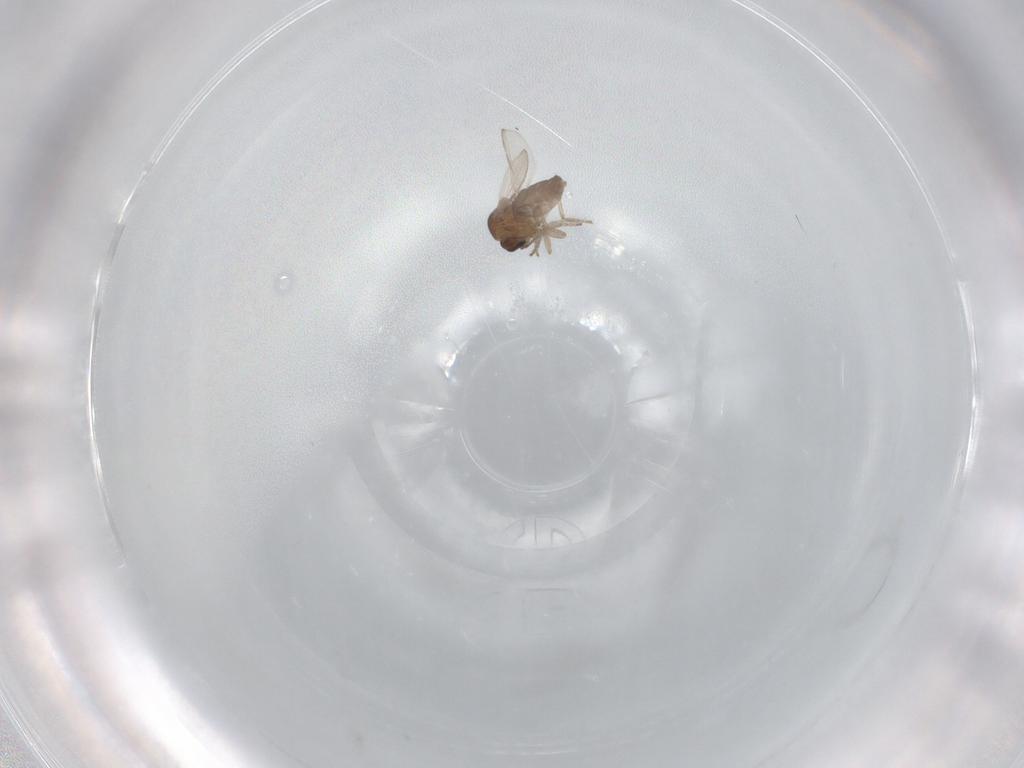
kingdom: Animalia
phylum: Arthropoda
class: Insecta
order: Diptera
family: Ceratopogonidae
